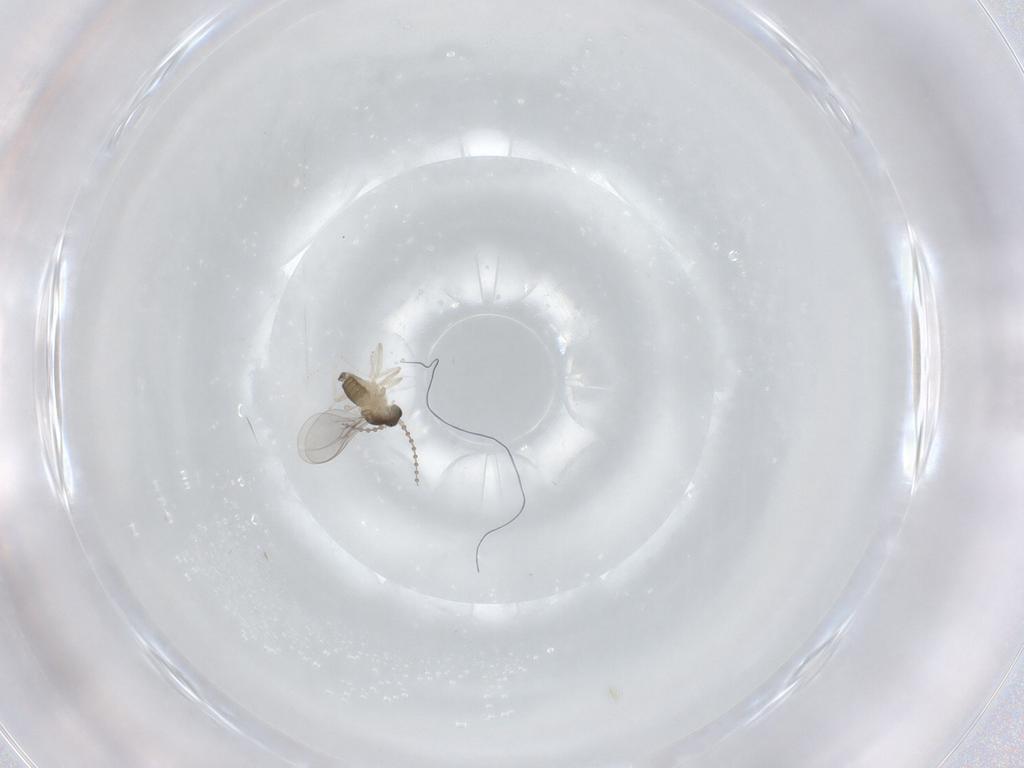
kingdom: Animalia
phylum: Arthropoda
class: Insecta
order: Diptera
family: Cecidomyiidae
